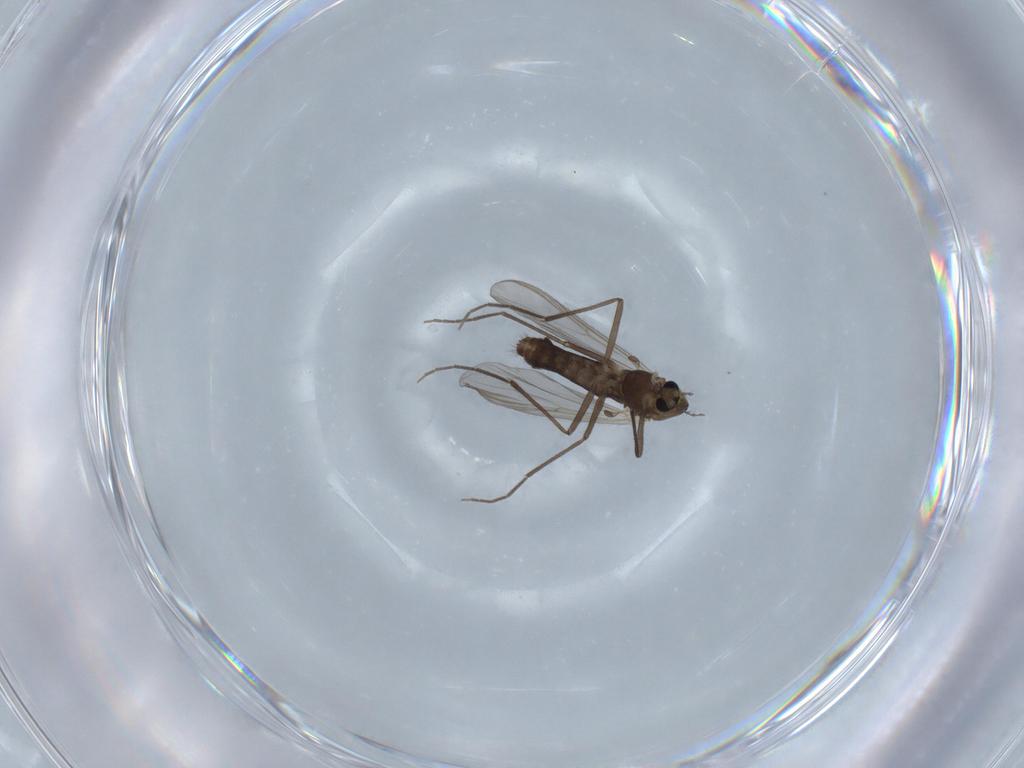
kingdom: Animalia
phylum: Arthropoda
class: Insecta
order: Diptera
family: Chironomidae
